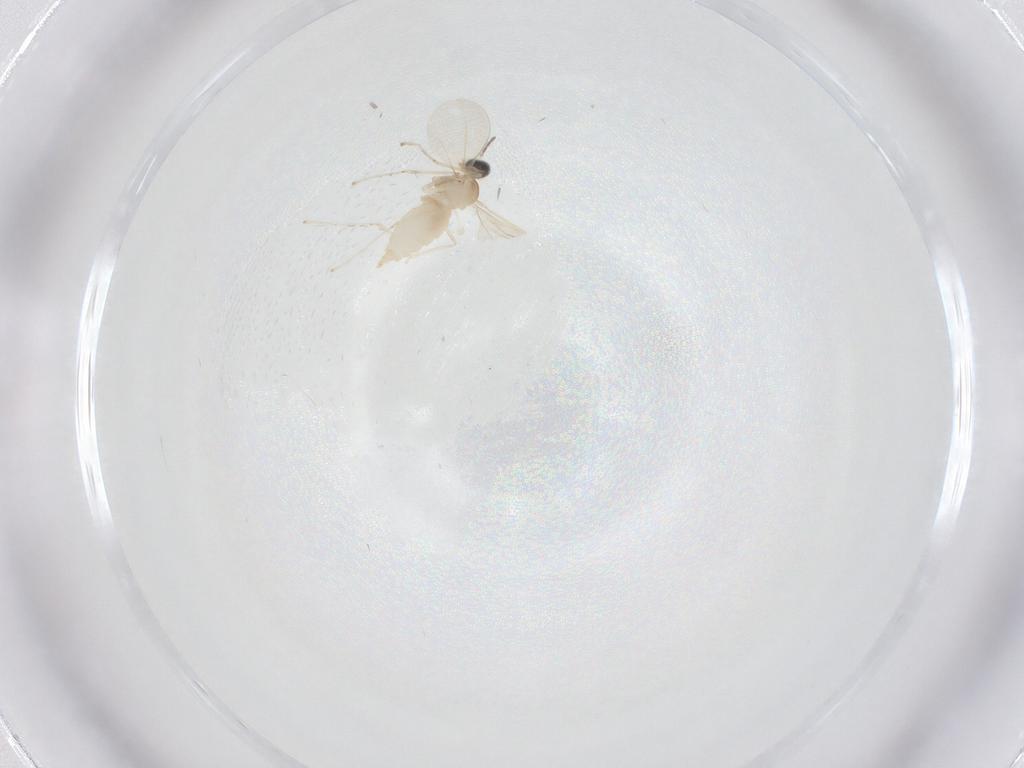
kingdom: Animalia
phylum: Arthropoda
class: Insecta
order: Diptera
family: Cecidomyiidae
